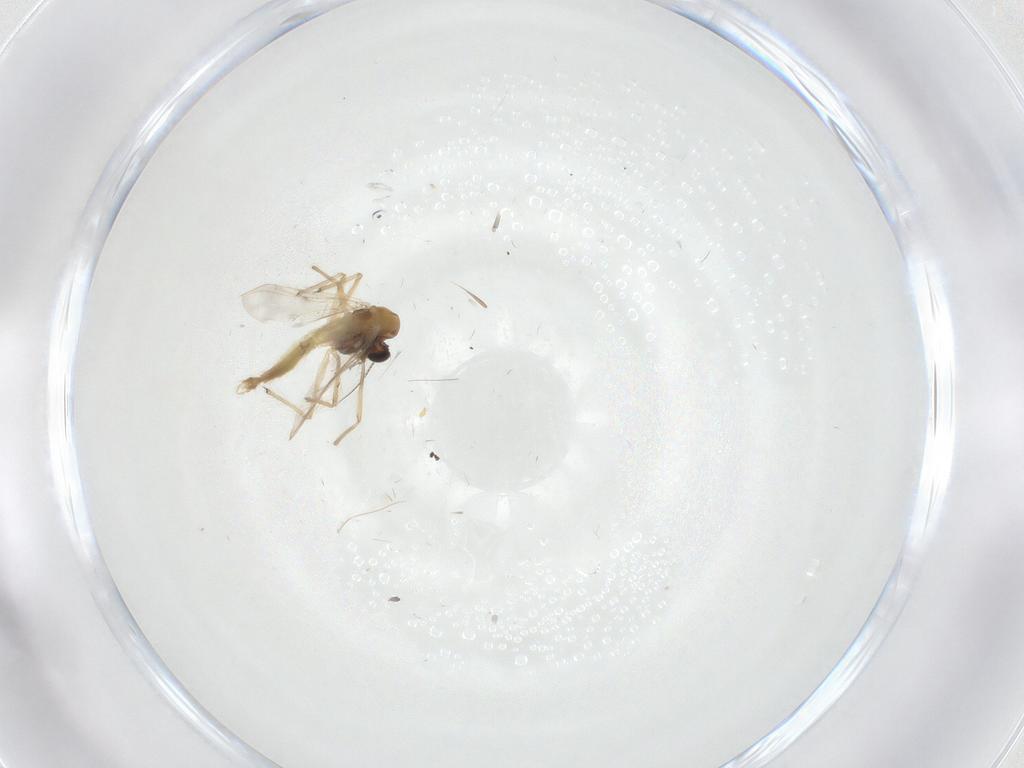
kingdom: Animalia
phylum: Arthropoda
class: Insecta
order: Diptera
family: Chironomidae
